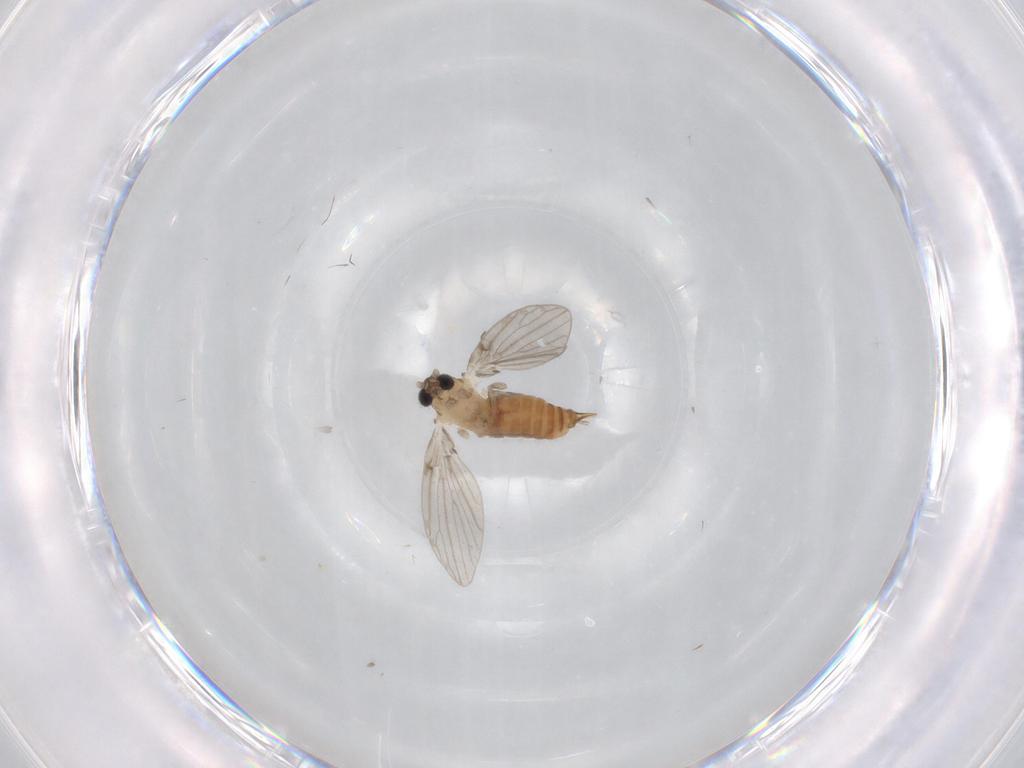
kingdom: Animalia
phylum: Arthropoda
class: Insecta
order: Diptera
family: Psychodidae
